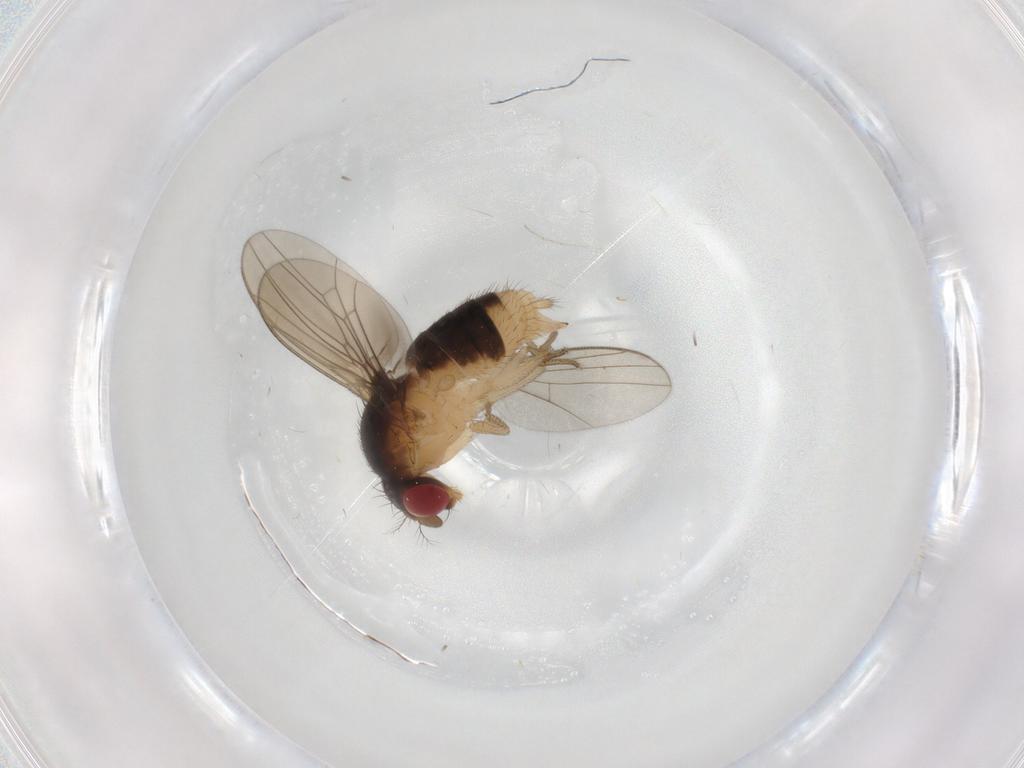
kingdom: Animalia
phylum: Arthropoda
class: Insecta
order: Diptera
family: Drosophilidae
